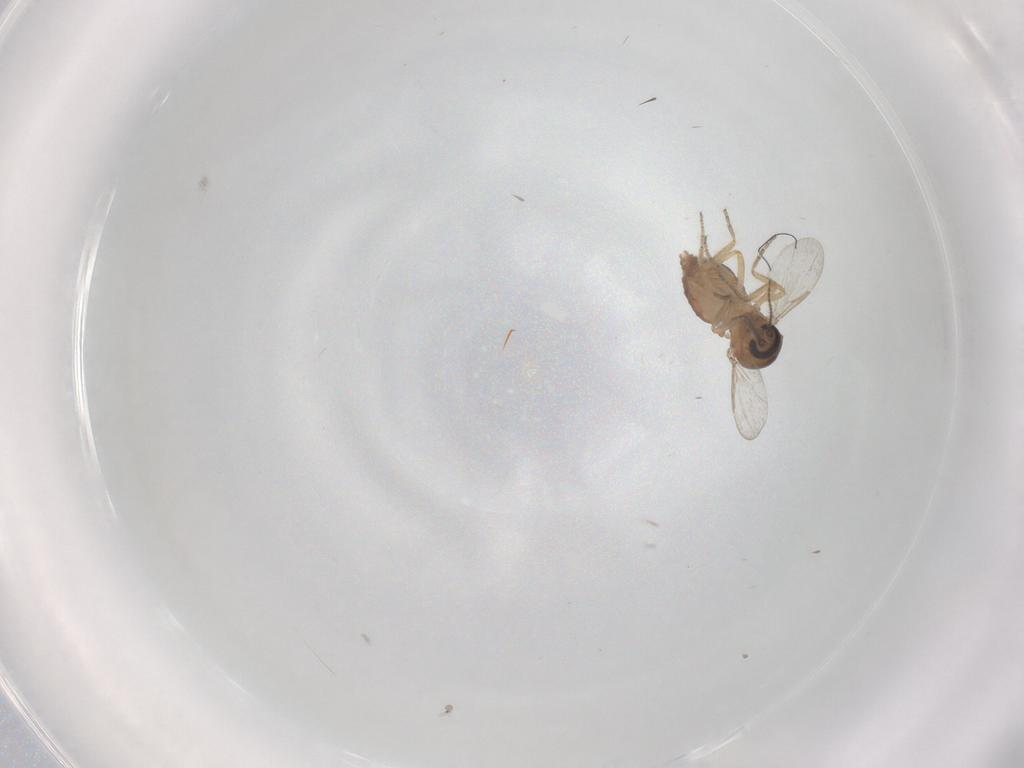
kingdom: Animalia
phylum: Arthropoda
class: Insecta
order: Diptera
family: Ceratopogonidae
